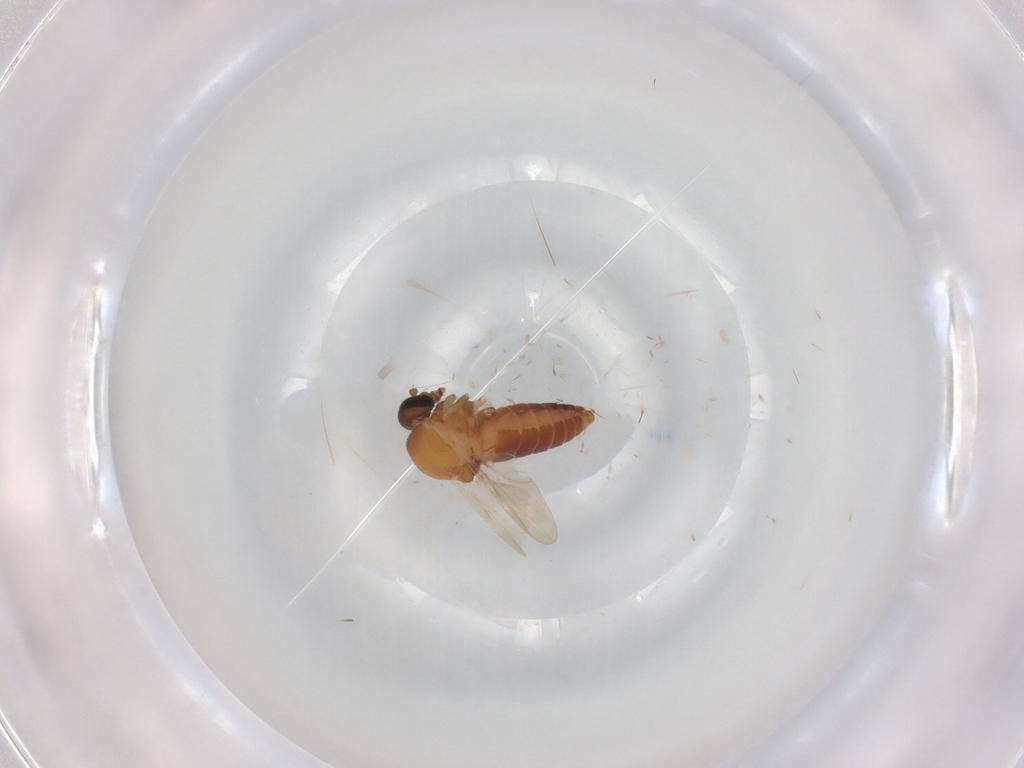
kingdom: Animalia
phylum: Arthropoda
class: Insecta
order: Diptera
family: Ceratopogonidae
